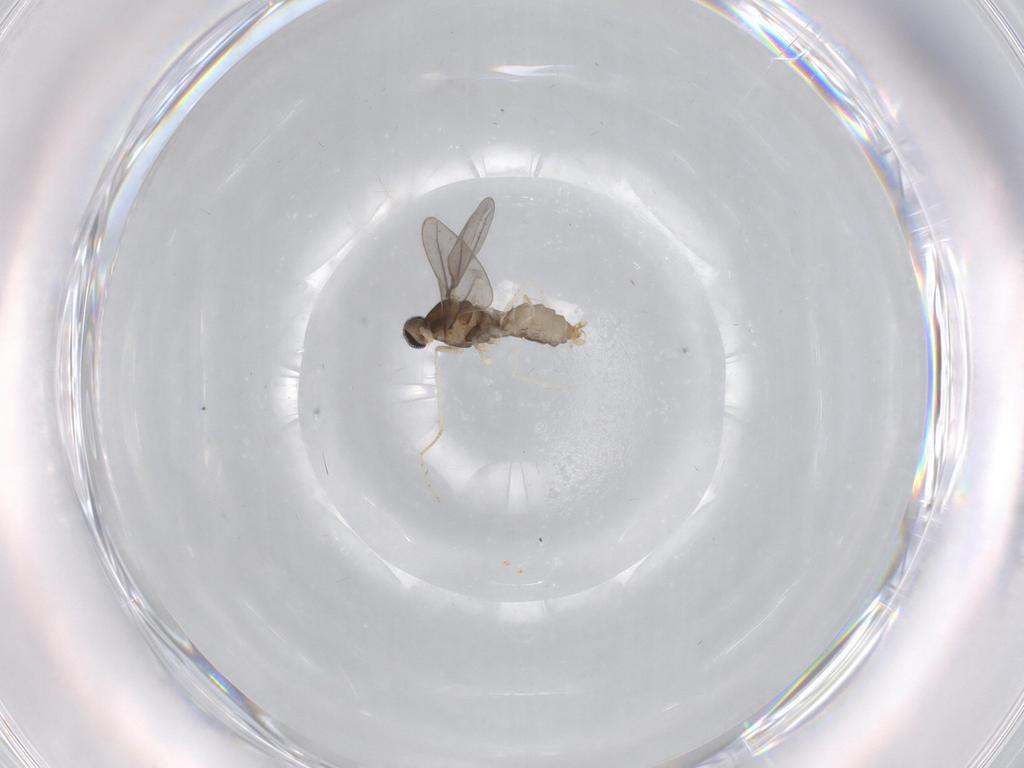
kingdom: Animalia
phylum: Arthropoda
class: Insecta
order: Diptera
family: Cecidomyiidae
